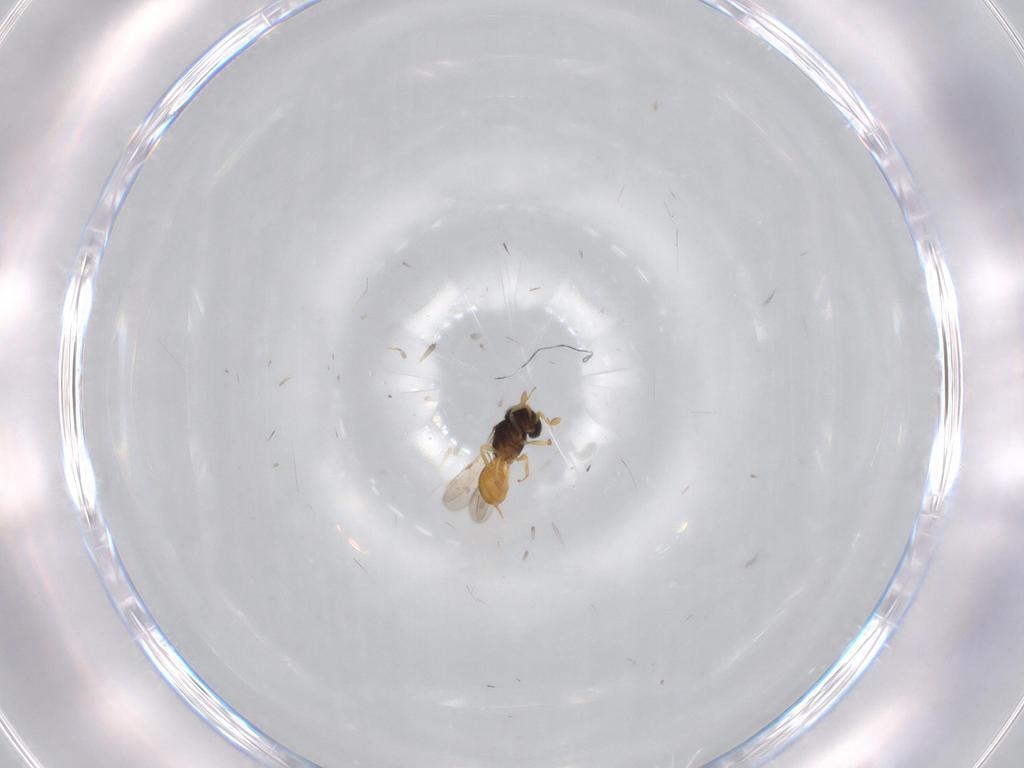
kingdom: Animalia
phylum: Arthropoda
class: Insecta
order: Hymenoptera
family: Scelionidae
